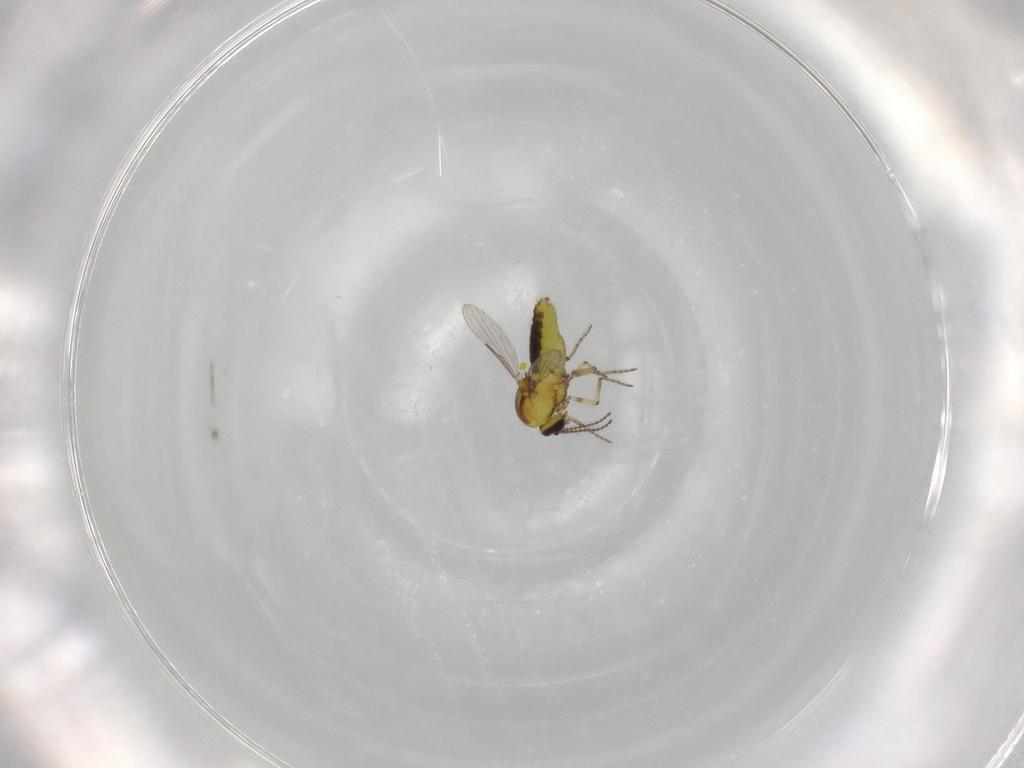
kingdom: Animalia
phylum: Arthropoda
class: Insecta
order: Diptera
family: Ceratopogonidae
